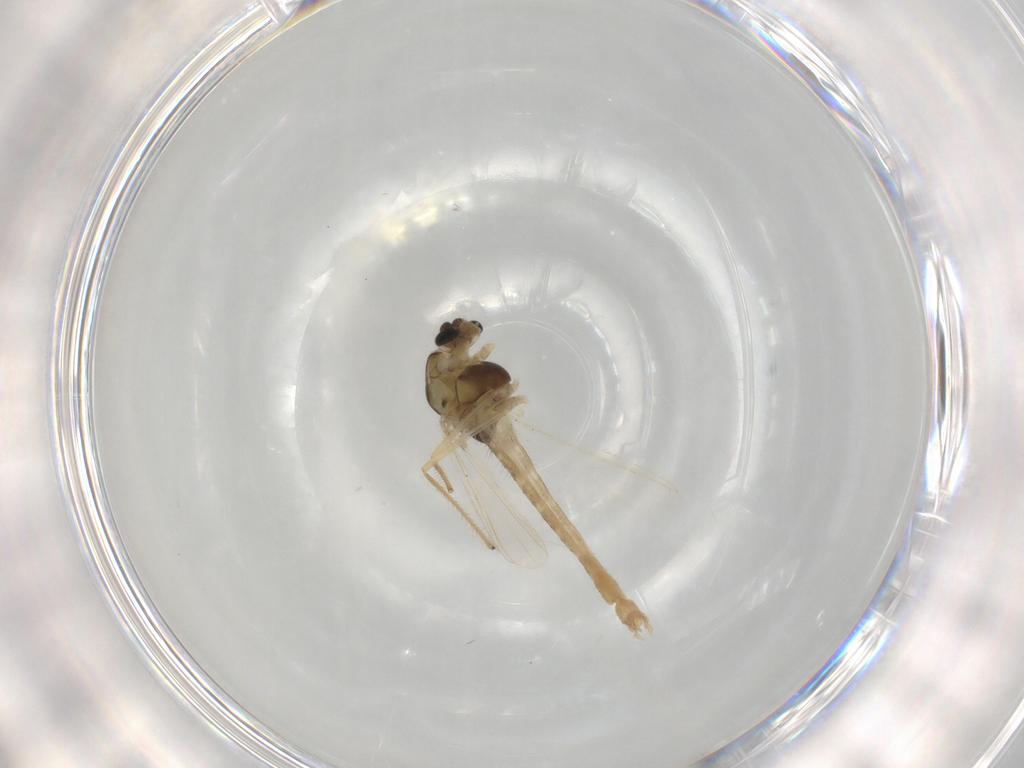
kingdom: Animalia
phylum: Arthropoda
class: Insecta
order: Diptera
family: Chironomidae
